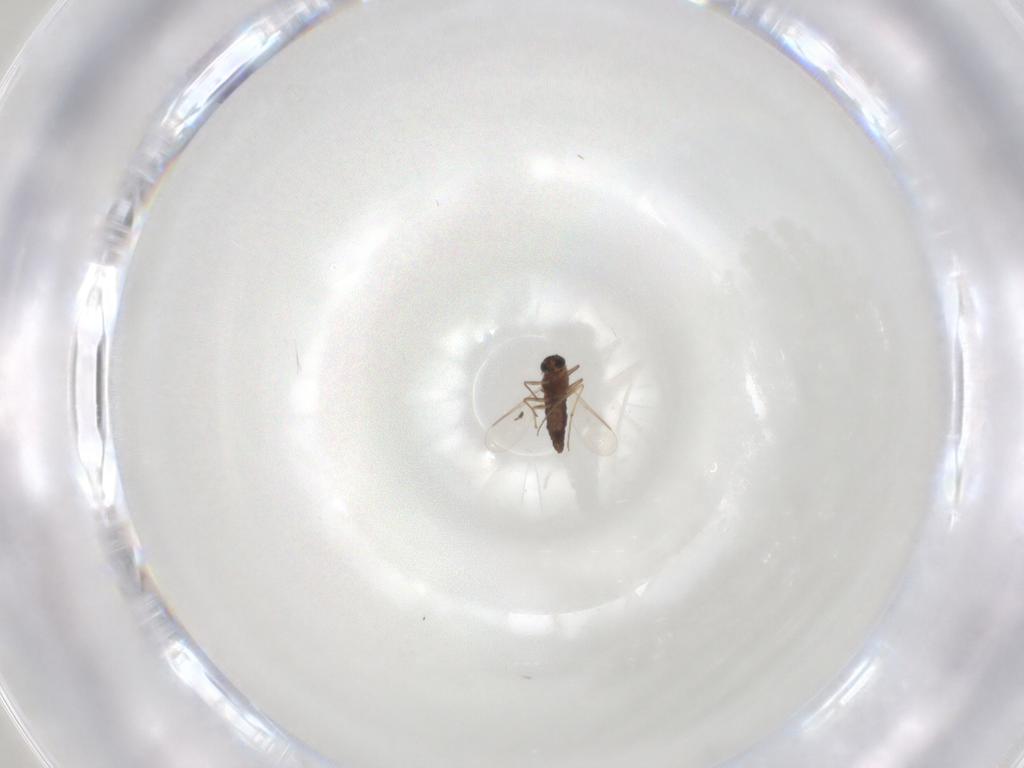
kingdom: Animalia
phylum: Arthropoda
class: Insecta
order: Diptera
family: Chironomidae
